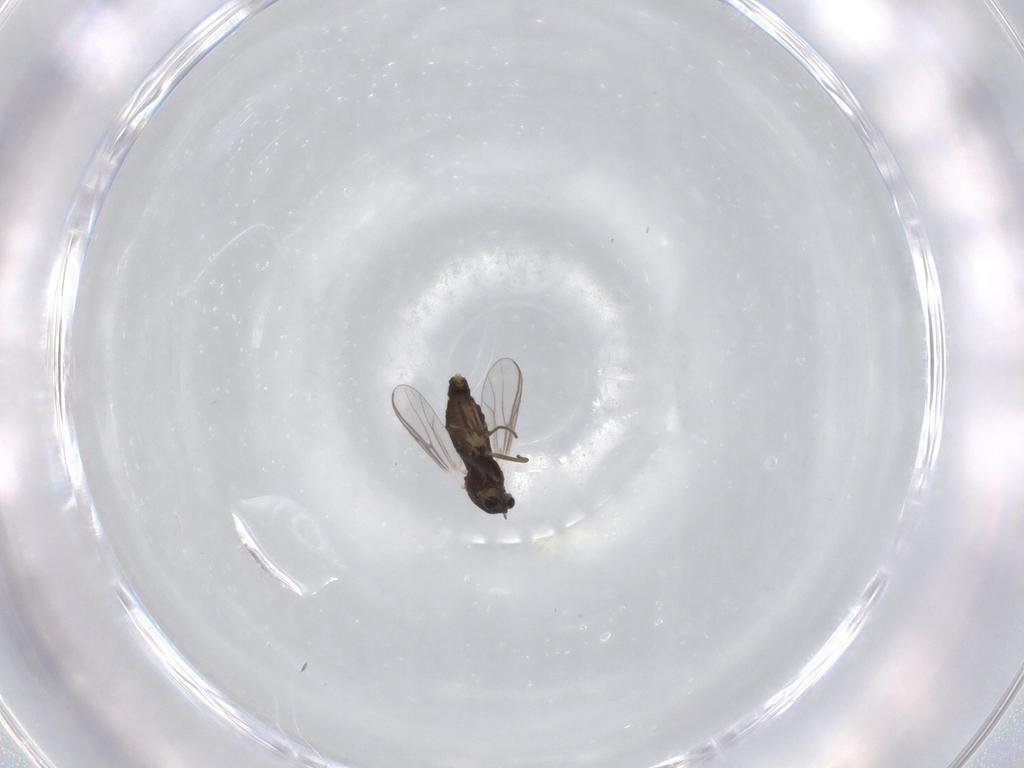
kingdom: Animalia
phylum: Arthropoda
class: Insecta
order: Diptera
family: Chironomidae
